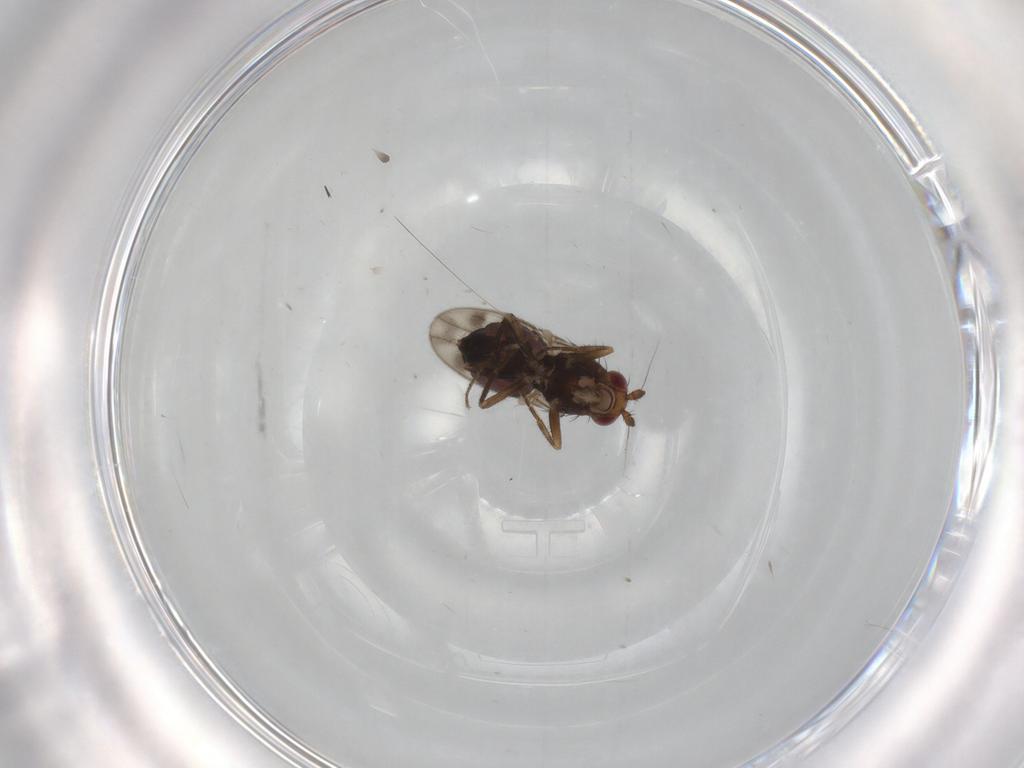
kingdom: Animalia
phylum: Arthropoda
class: Insecta
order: Diptera
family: Sphaeroceridae
